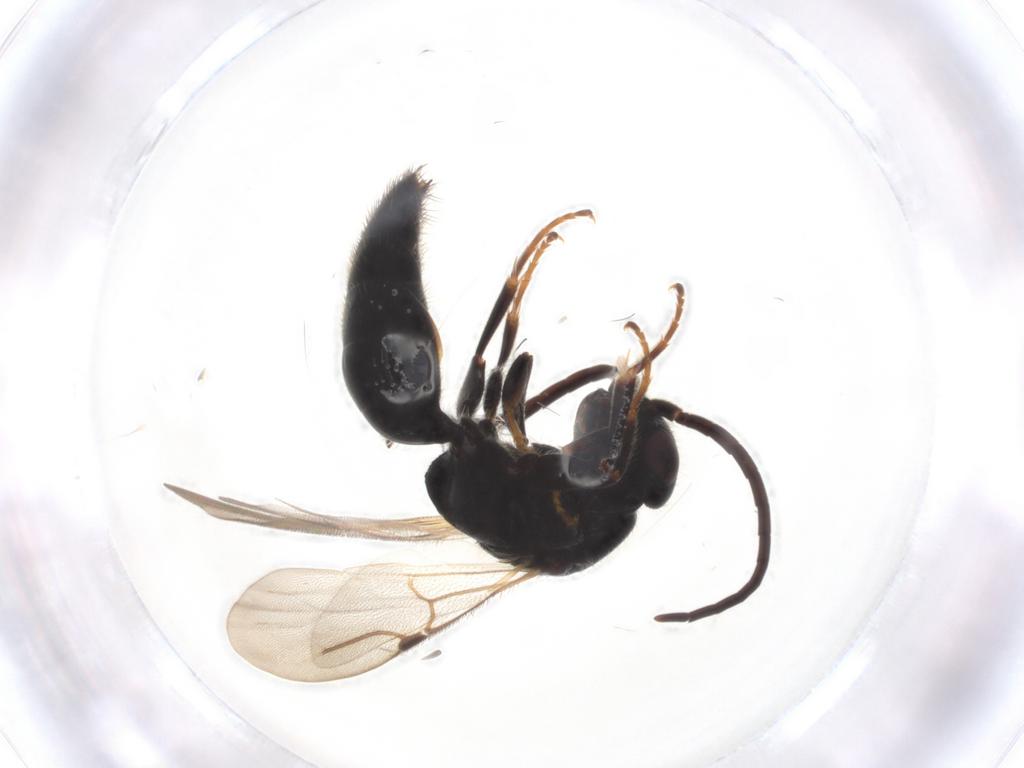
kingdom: Animalia
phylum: Arthropoda
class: Insecta
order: Hymenoptera
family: Bethylidae
